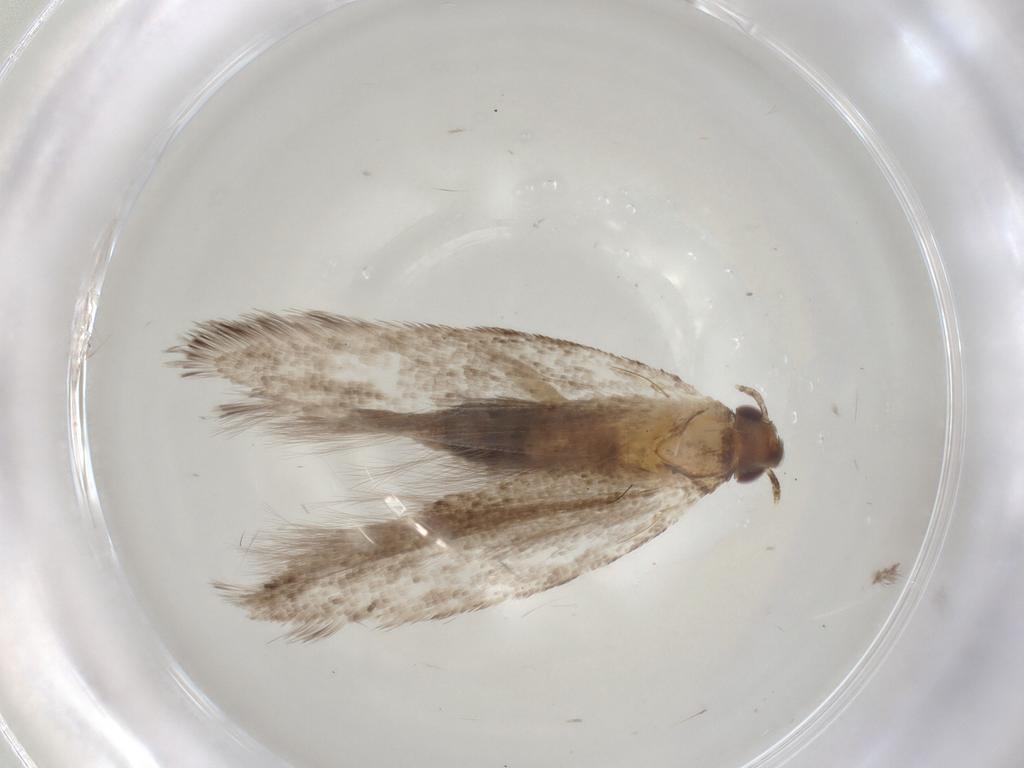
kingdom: Animalia
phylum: Arthropoda
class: Insecta
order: Lepidoptera
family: Gelechiidae
